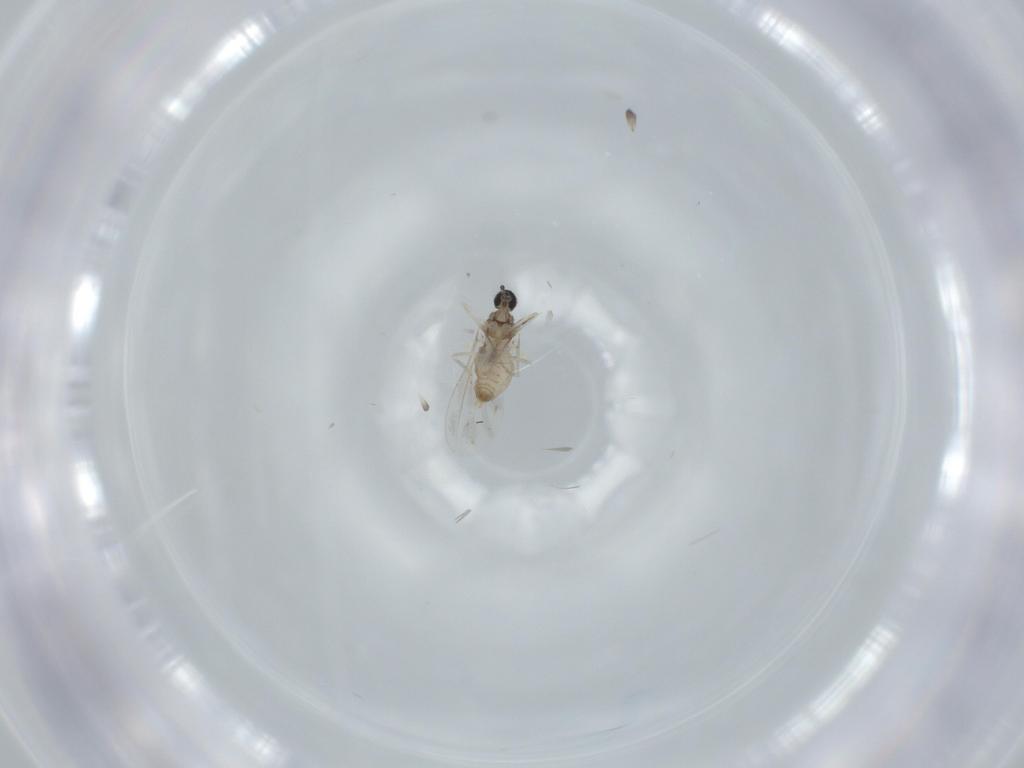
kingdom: Animalia
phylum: Arthropoda
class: Insecta
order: Diptera
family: Cecidomyiidae
